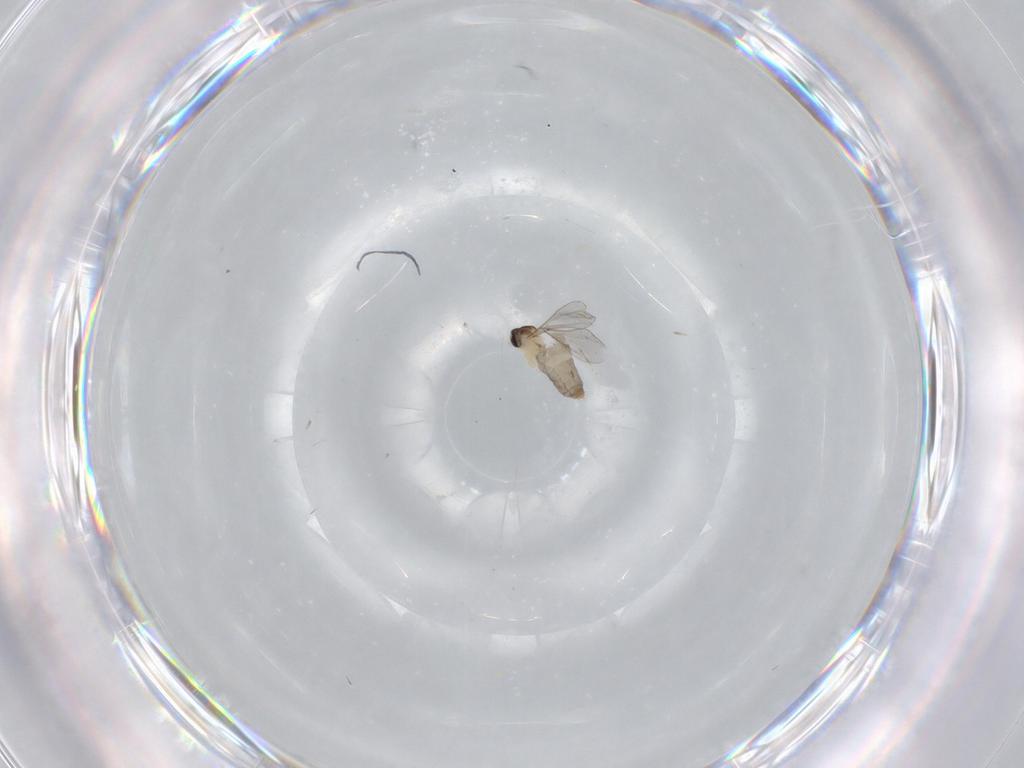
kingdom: Animalia
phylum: Arthropoda
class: Insecta
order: Diptera
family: Cecidomyiidae
